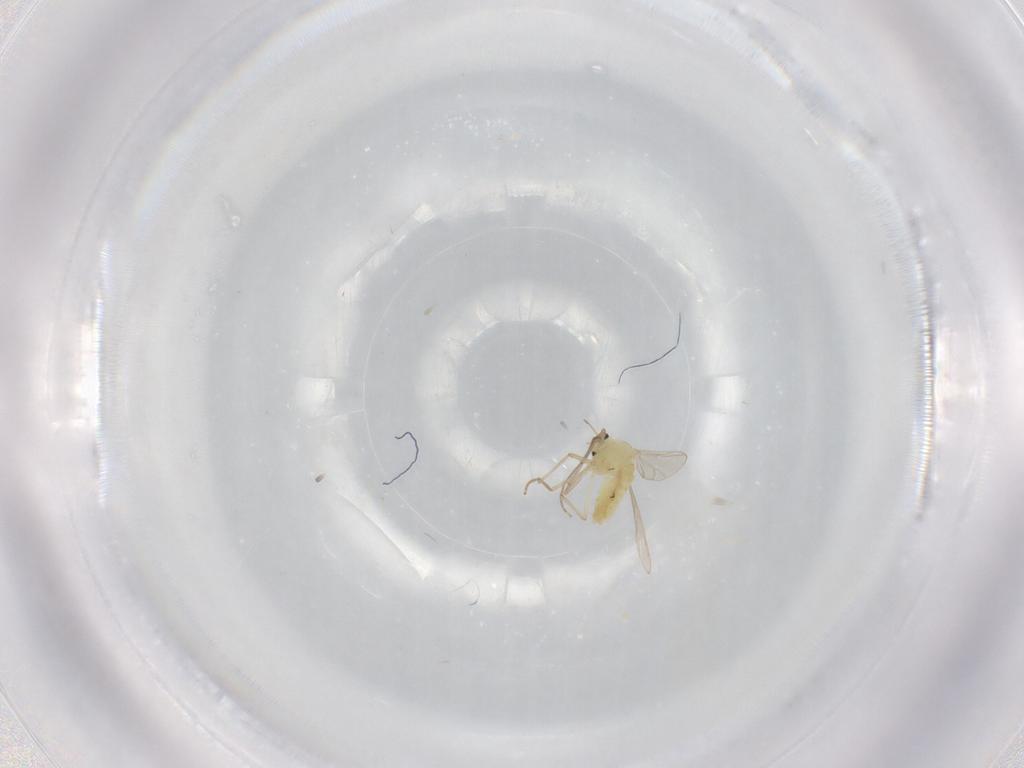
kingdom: Animalia
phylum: Arthropoda
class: Insecta
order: Diptera
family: Chironomidae
